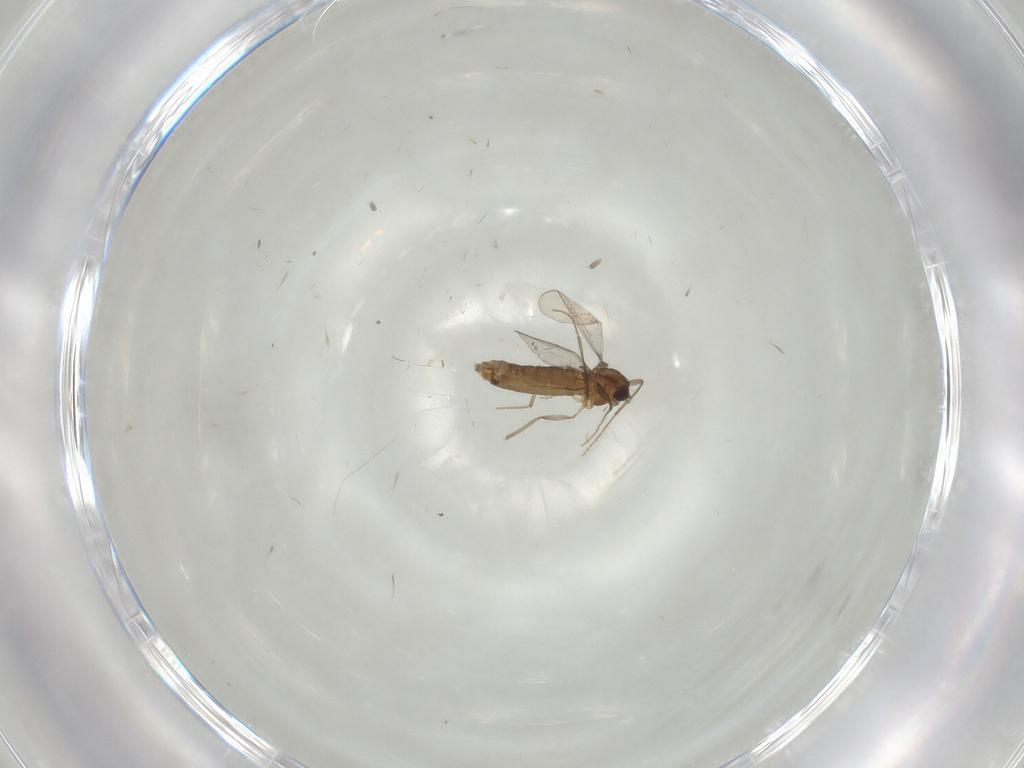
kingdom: Animalia
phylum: Arthropoda
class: Insecta
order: Diptera
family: Chironomidae
